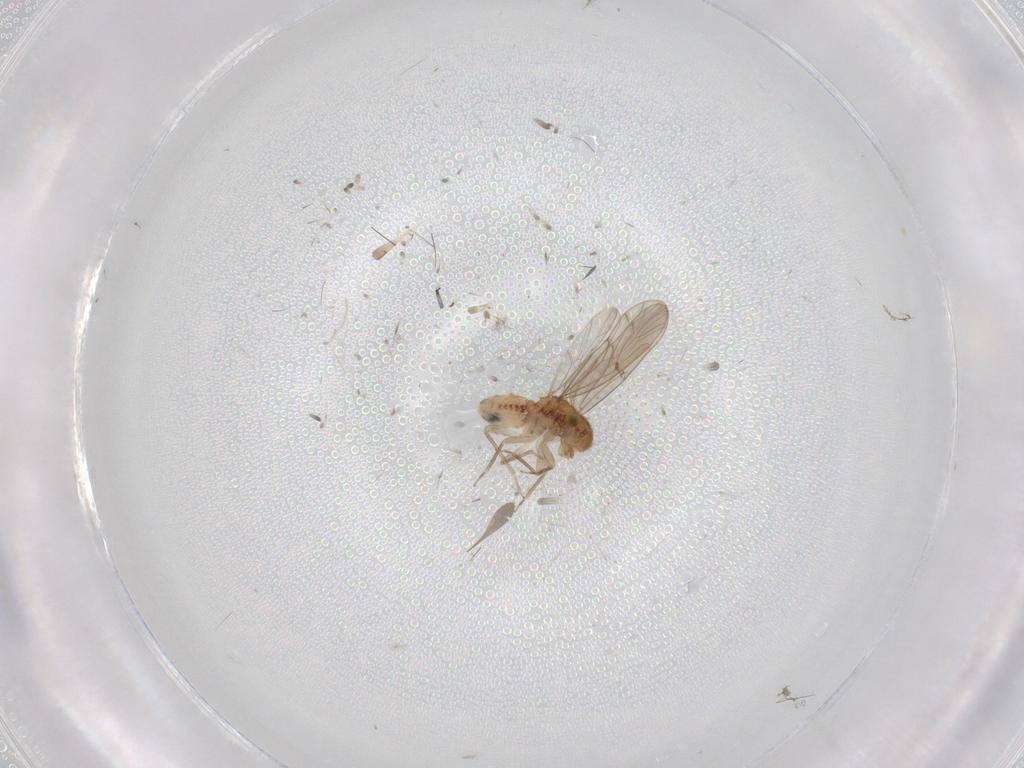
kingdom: Animalia
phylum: Arthropoda
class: Insecta
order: Psocodea
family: Ectopsocidae
